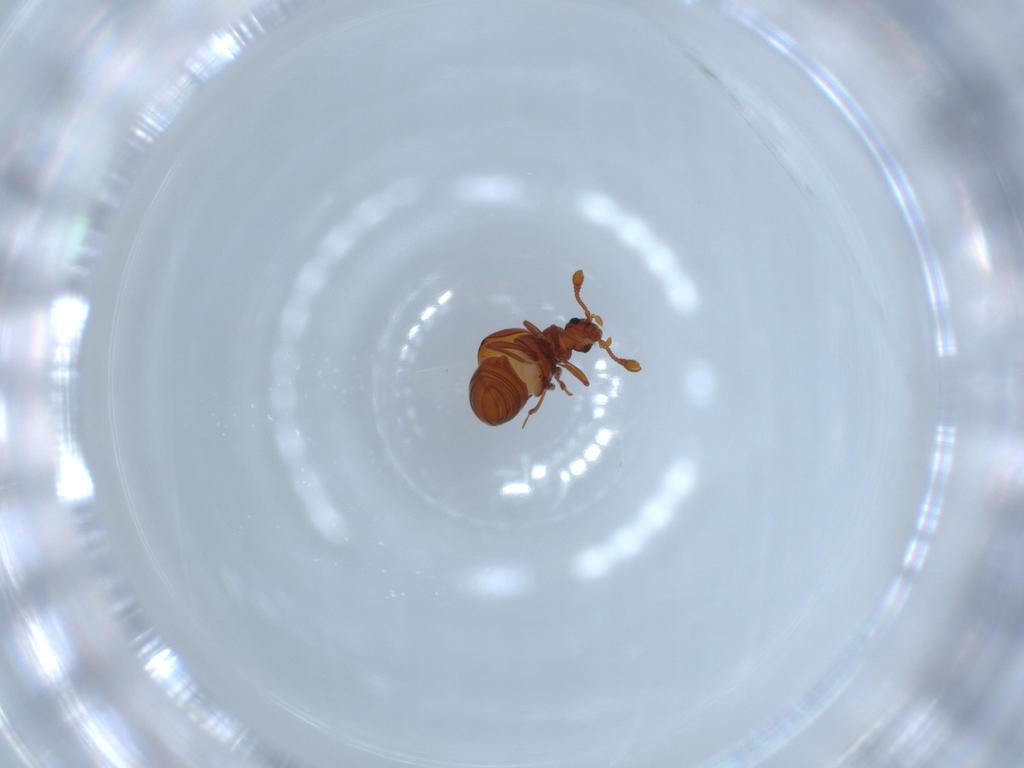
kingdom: Animalia
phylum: Arthropoda
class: Insecta
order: Coleoptera
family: Staphylinidae
